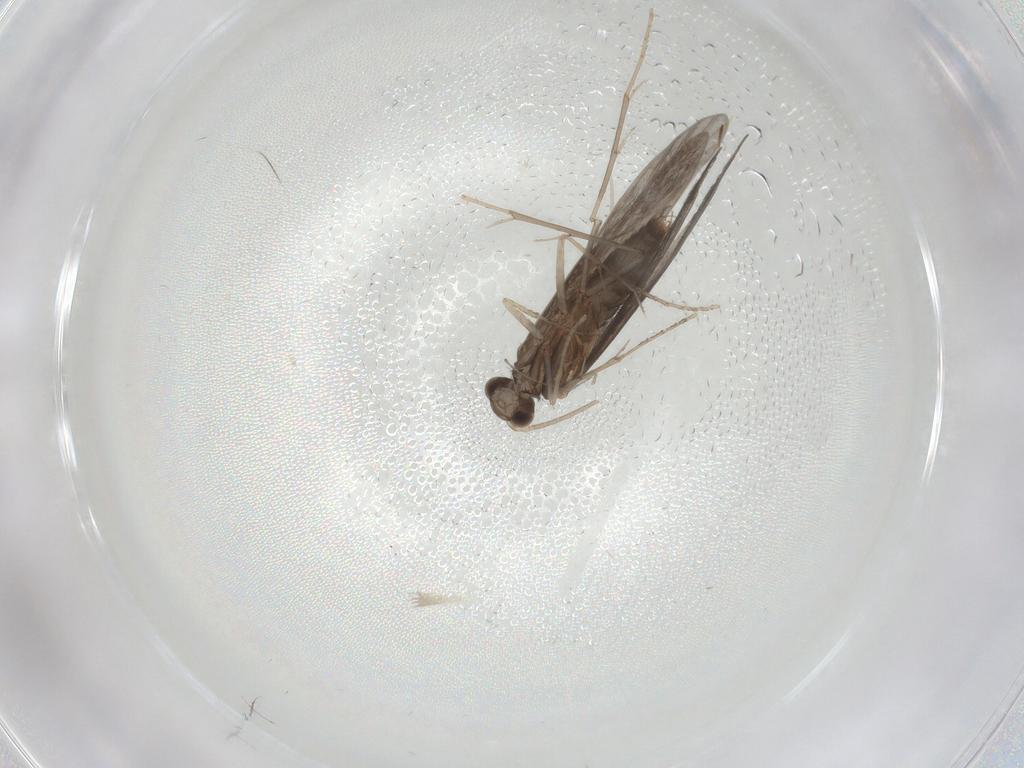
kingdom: Animalia
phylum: Arthropoda
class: Insecta
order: Trichoptera
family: Xiphocentronidae
